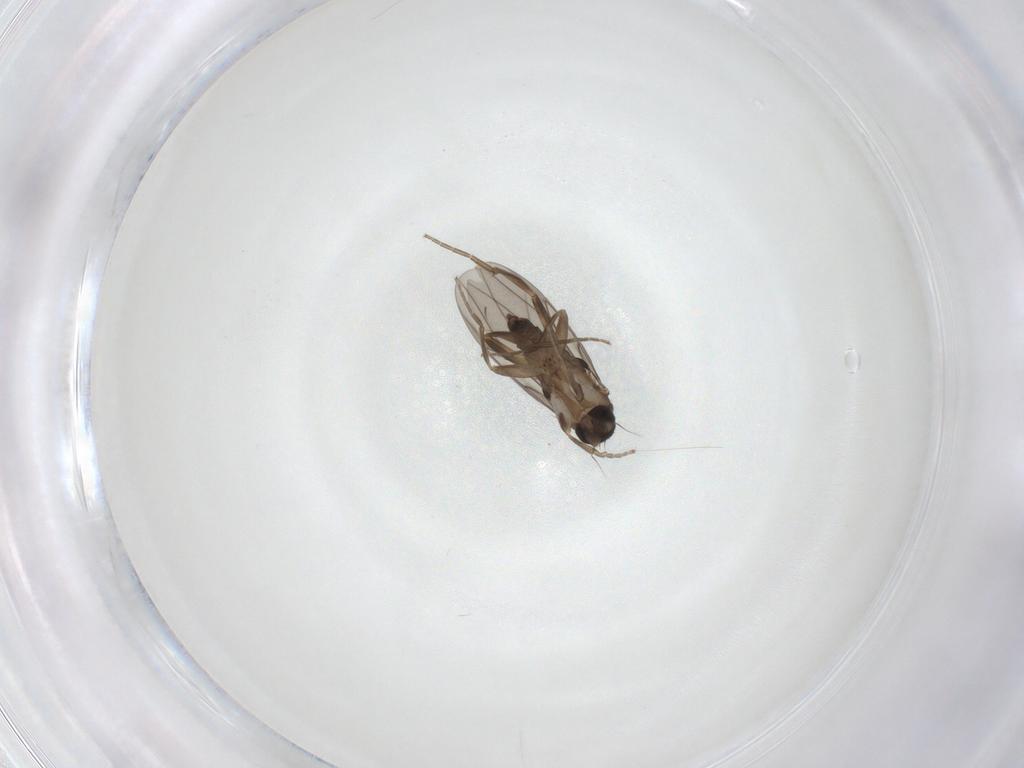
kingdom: Animalia
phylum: Arthropoda
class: Insecta
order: Diptera
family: Phoridae
